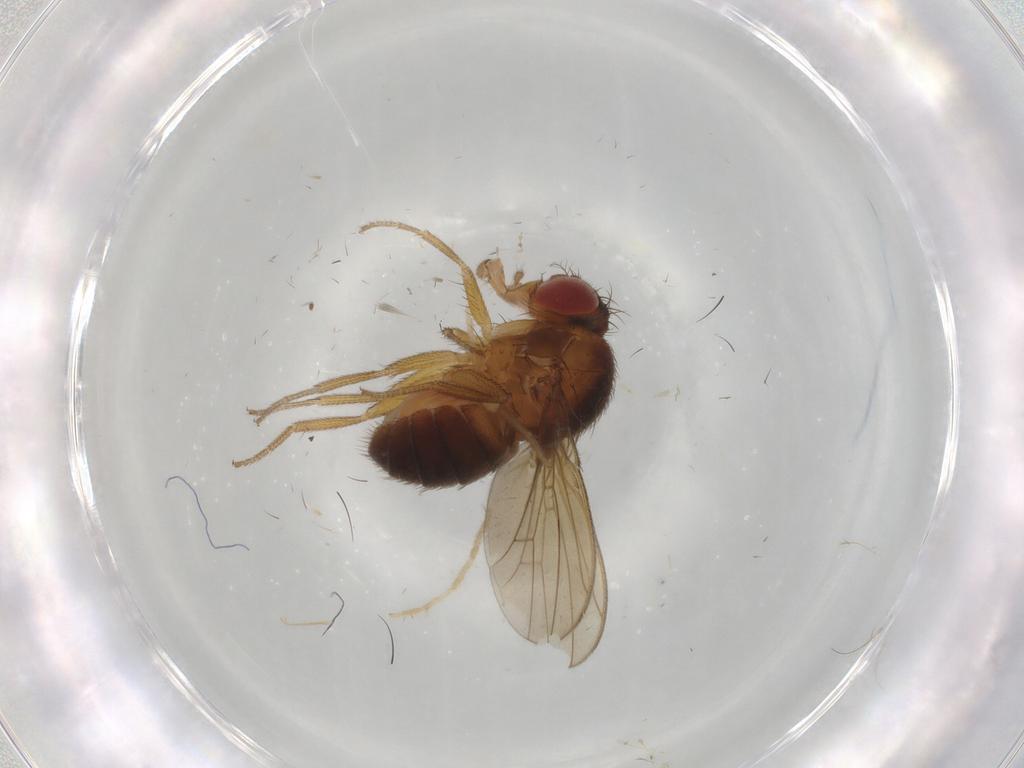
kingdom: Animalia
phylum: Arthropoda
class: Insecta
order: Diptera
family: Drosophilidae
